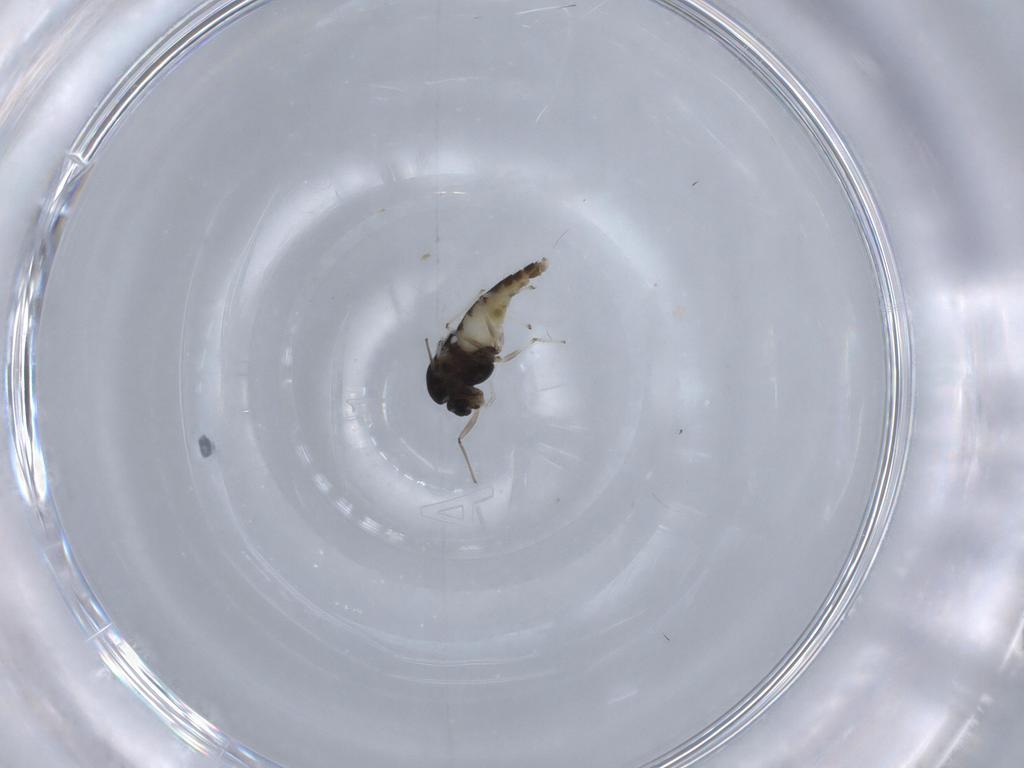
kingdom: Animalia
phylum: Arthropoda
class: Insecta
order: Diptera
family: Chironomidae
